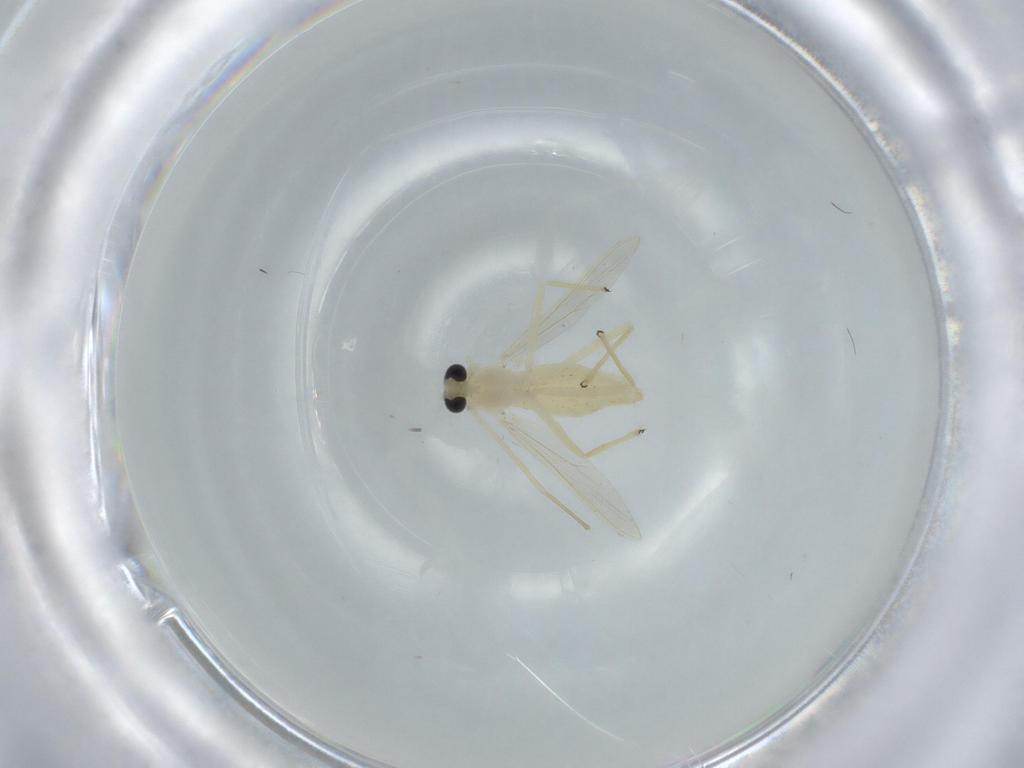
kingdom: Animalia
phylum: Arthropoda
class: Insecta
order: Diptera
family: Chironomidae
